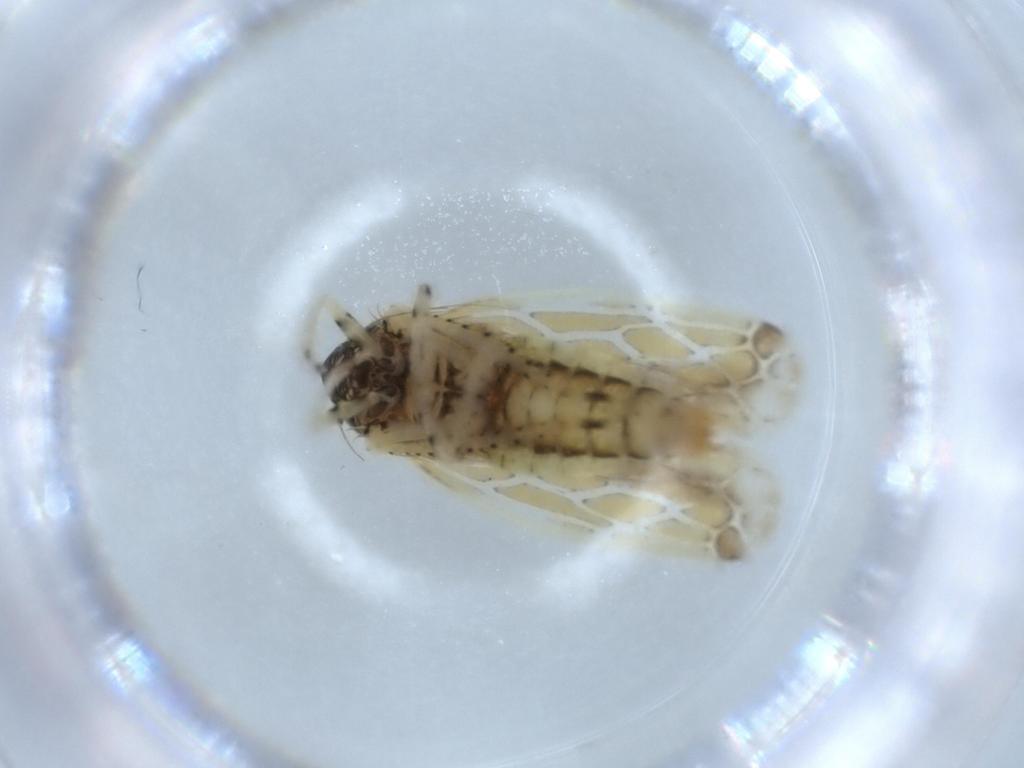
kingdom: Animalia
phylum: Arthropoda
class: Insecta
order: Hemiptera
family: Cicadellidae
